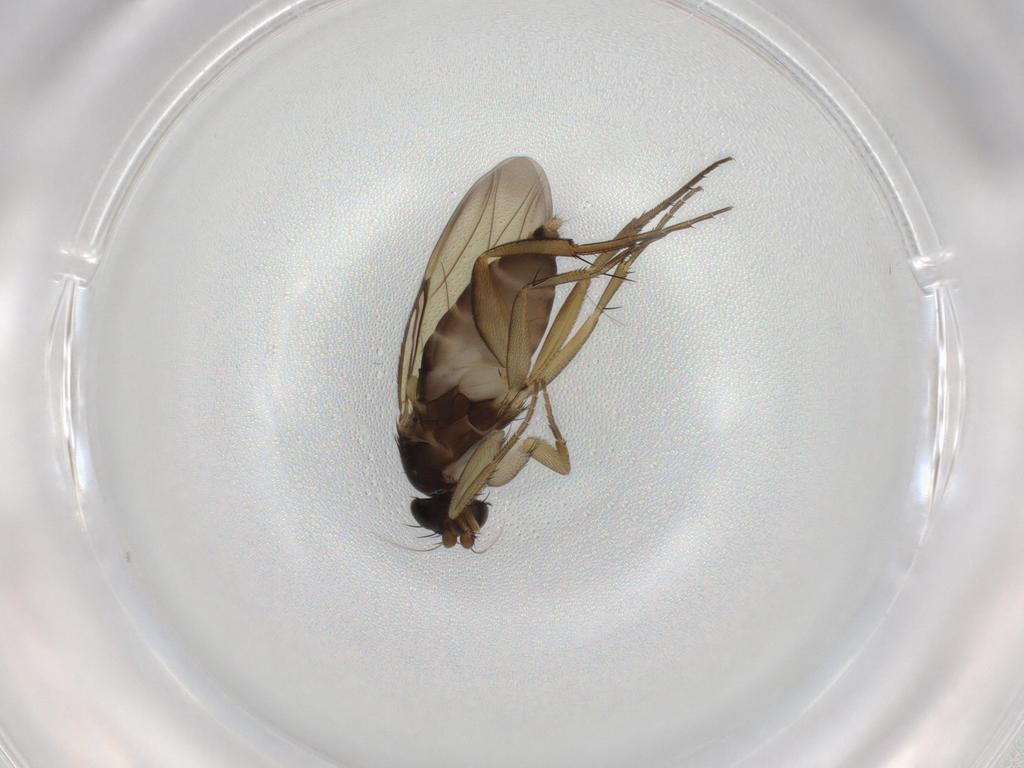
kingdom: Animalia
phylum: Arthropoda
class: Insecta
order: Diptera
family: Phoridae
